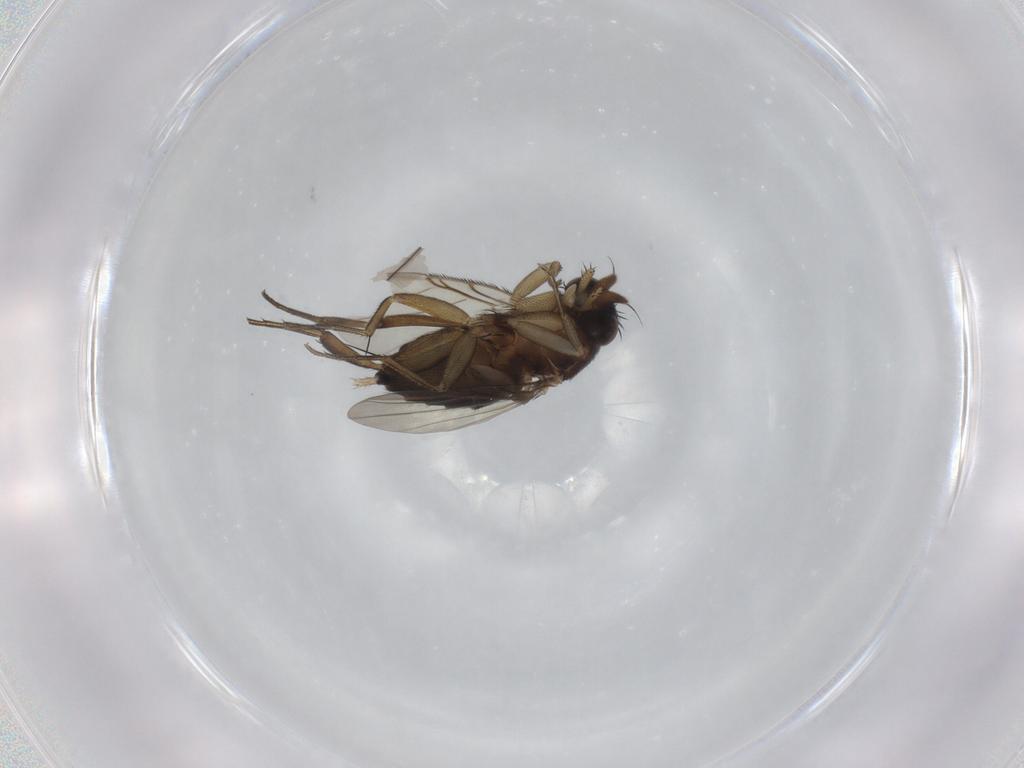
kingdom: Animalia
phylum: Arthropoda
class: Insecta
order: Diptera
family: Phoridae
